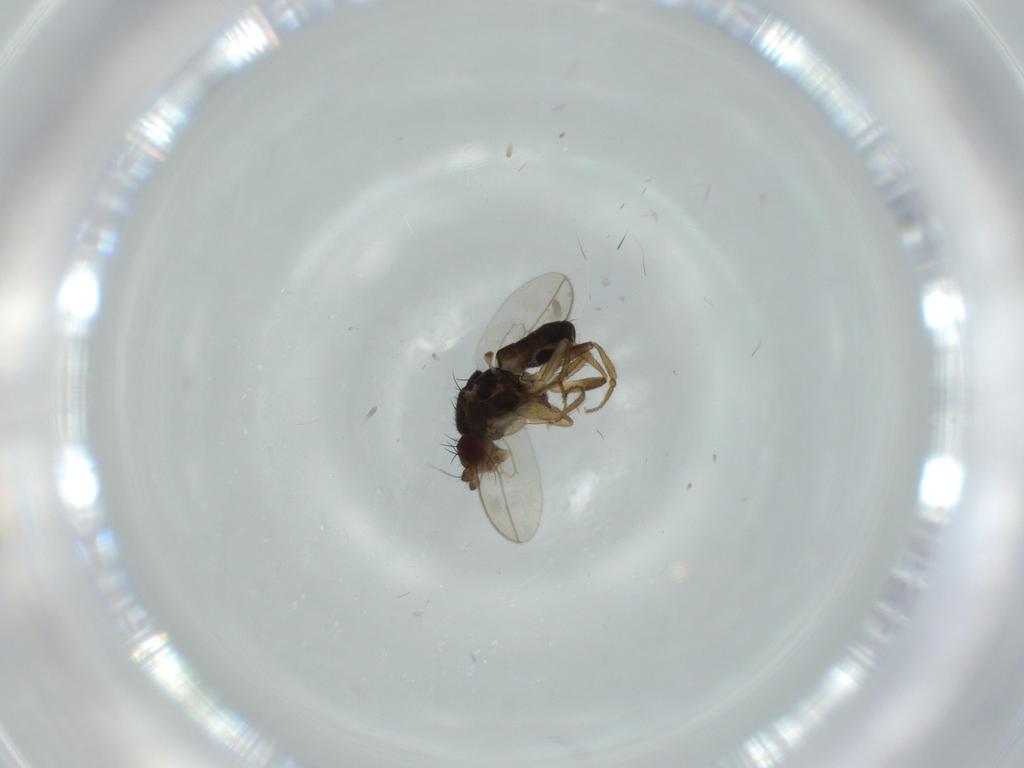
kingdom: Animalia
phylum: Arthropoda
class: Insecta
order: Diptera
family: Sphaeroceridae
